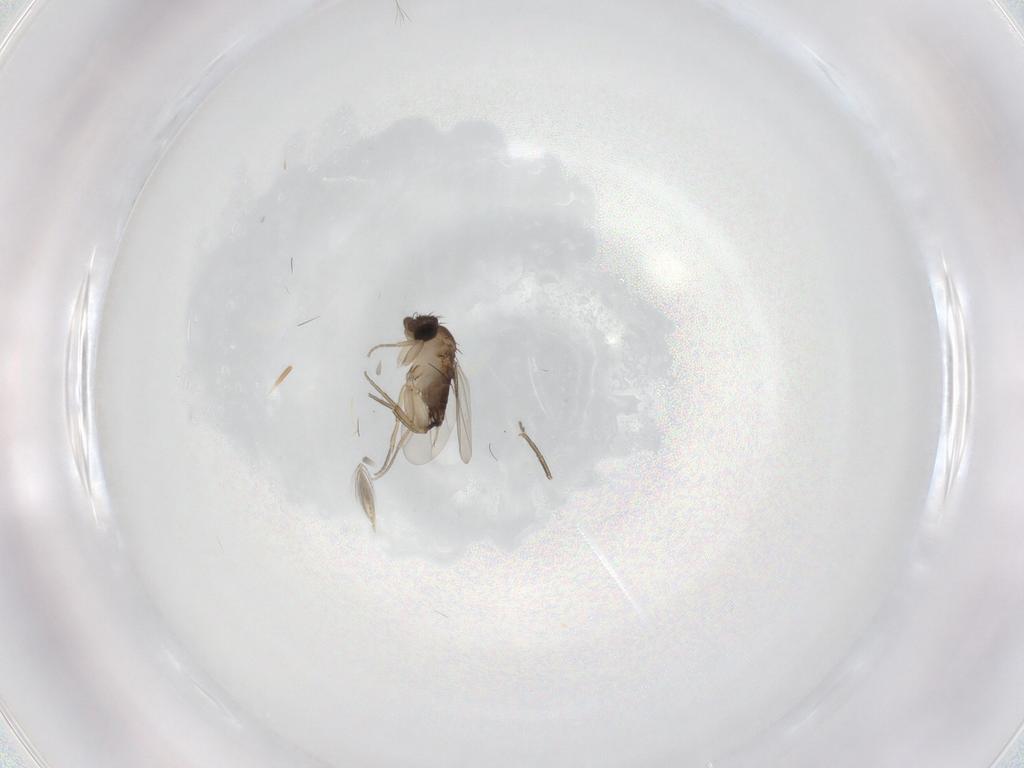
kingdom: Animalia
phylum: Arthropoda
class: Insecta
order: Diptera
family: Phoridae
